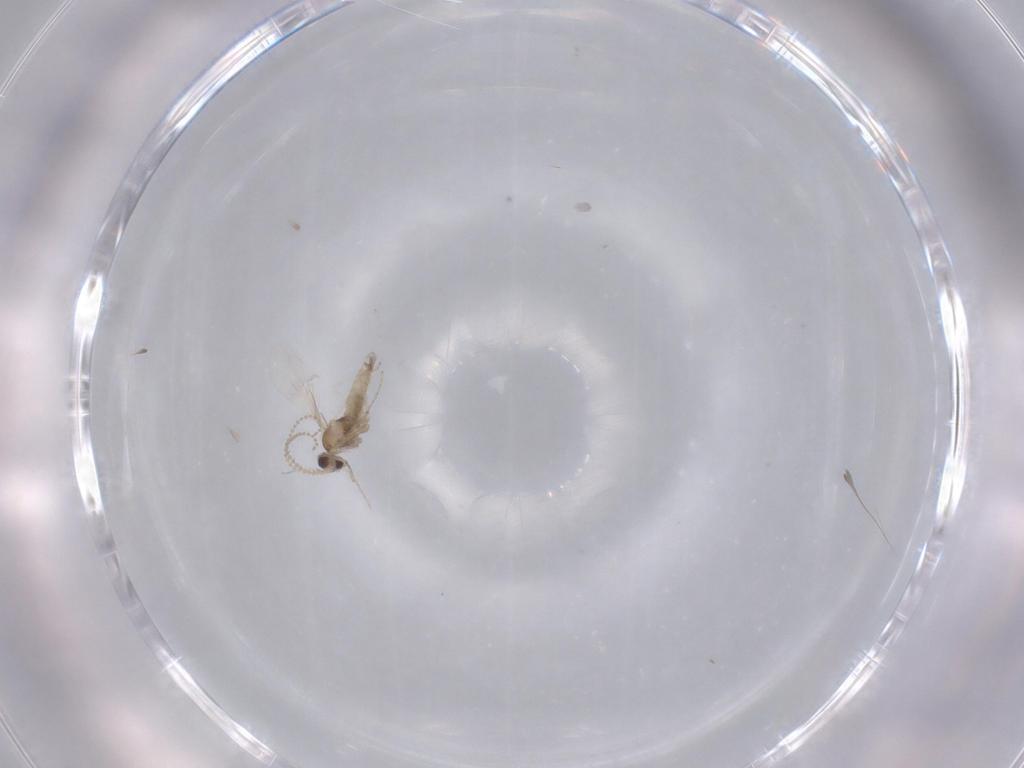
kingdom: Animalia
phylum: Arthropoda
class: Insecta
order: Diptera
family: Cecidomyiidae
